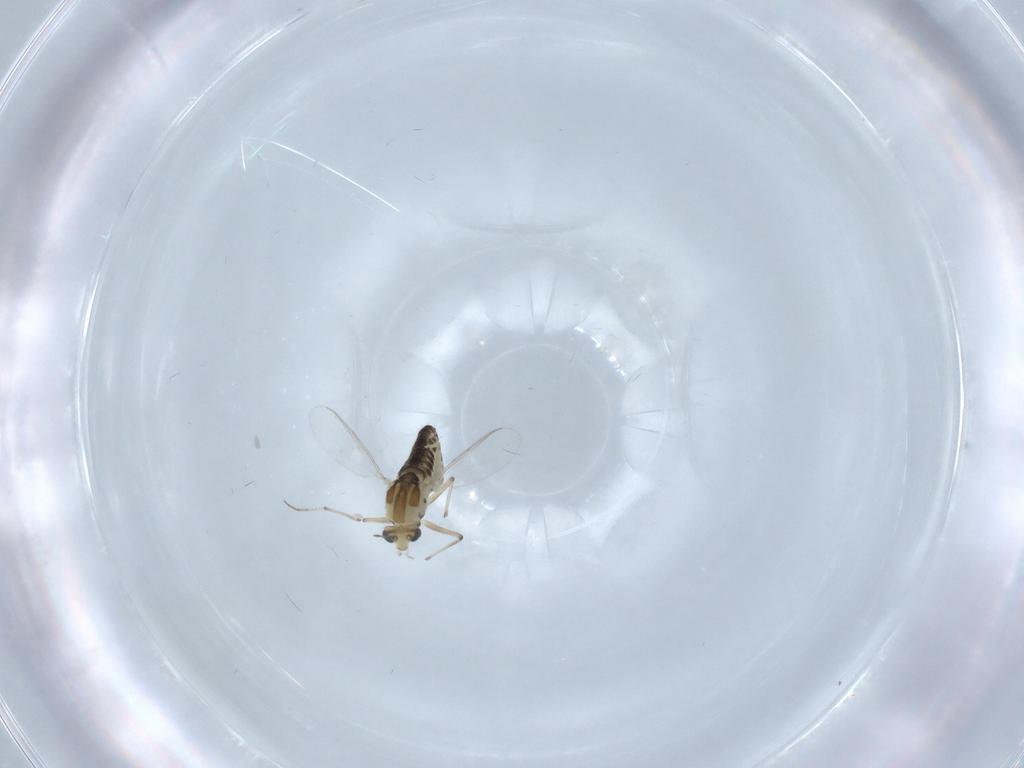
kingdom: Animalia
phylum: Arthropoda
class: Insecta
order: Diptera
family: Chironomidae
